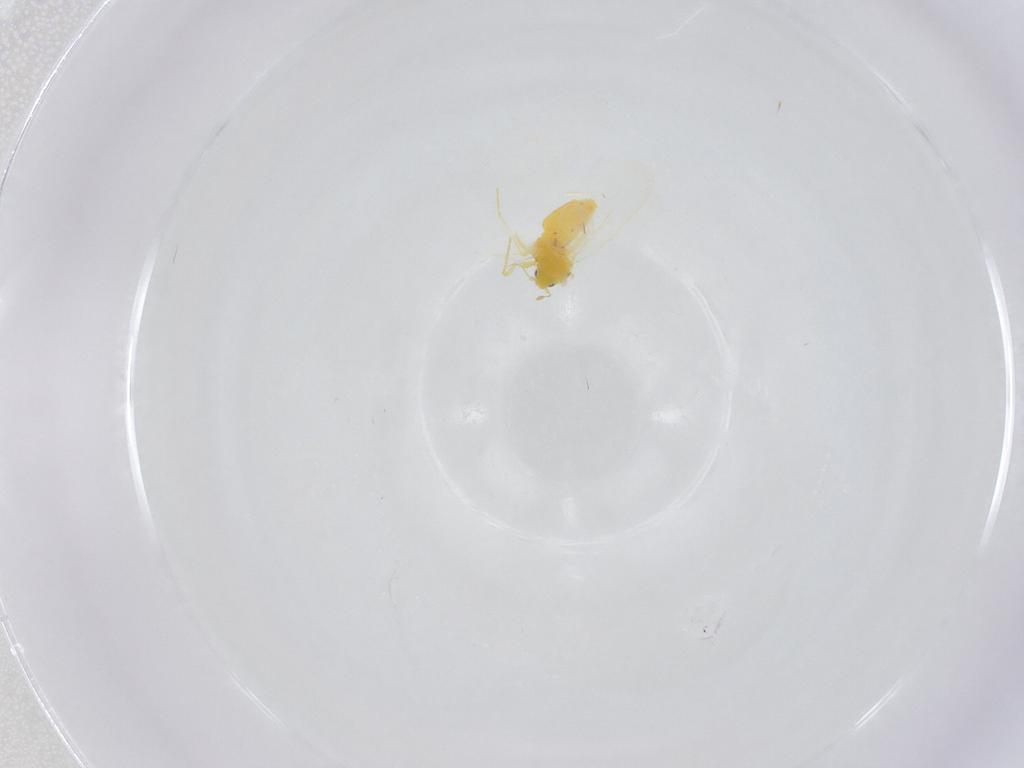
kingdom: Animalia
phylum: Arthropoda
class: Insecta
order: Hemiptera
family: Aleyrodidae
